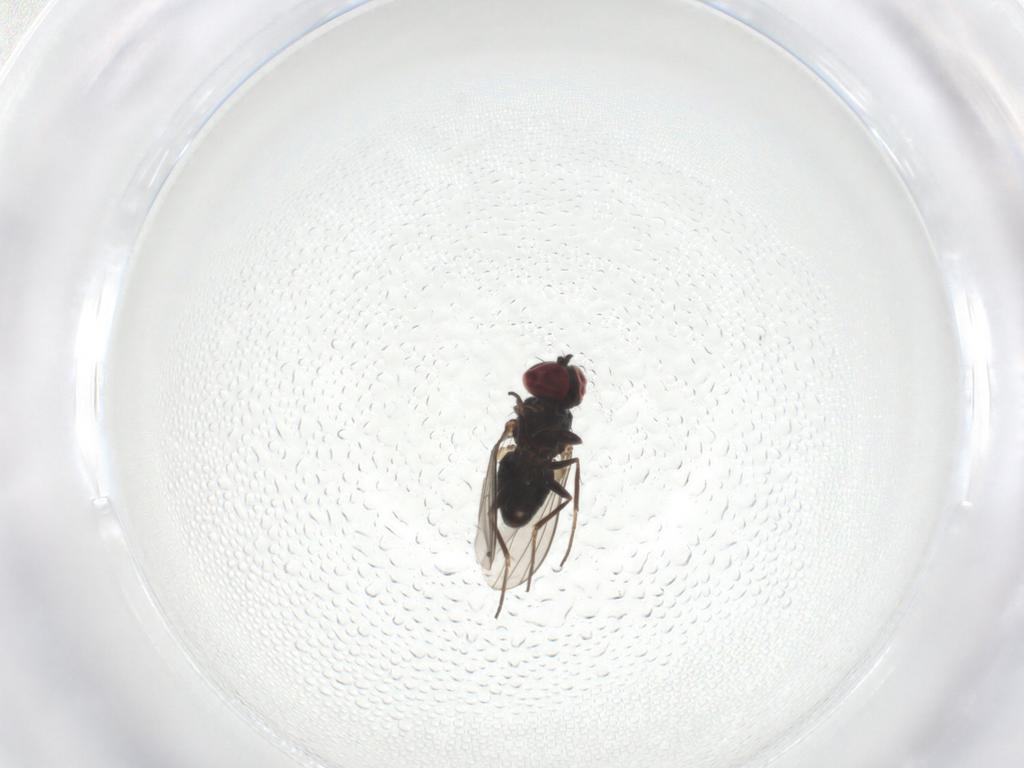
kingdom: Animalia
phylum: Arthropoda
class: Insecta
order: Diptera
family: Dolichopodidae
